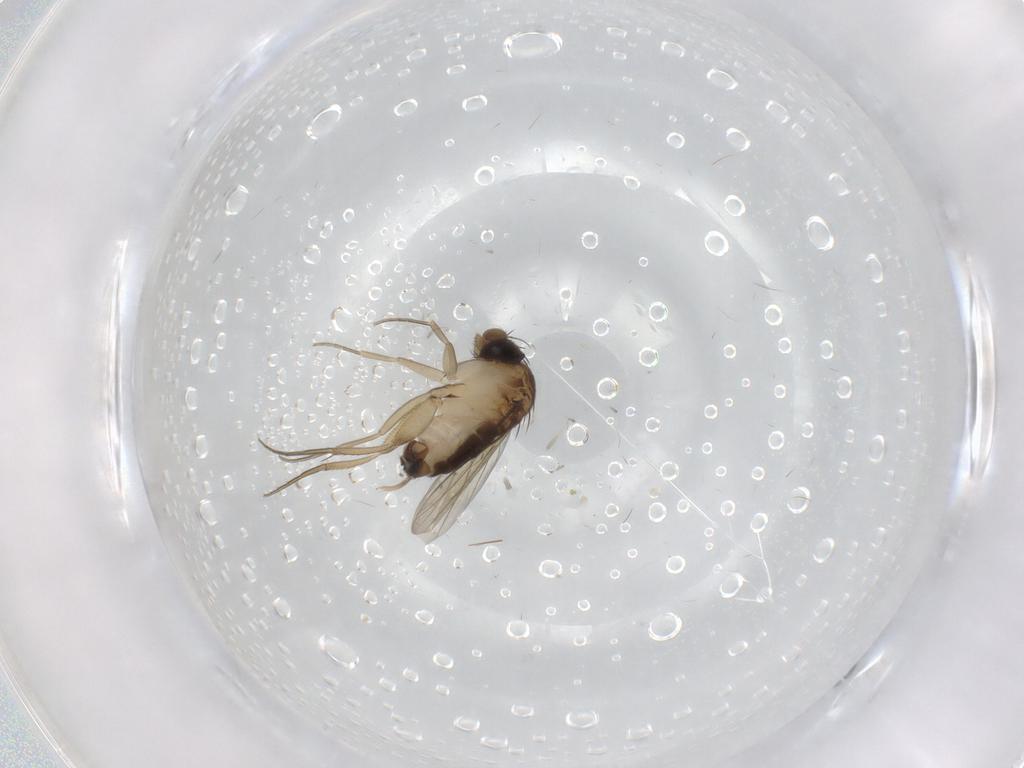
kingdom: Animalia
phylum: Arthropoda
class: Insecta
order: Diptera
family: Phoridae
